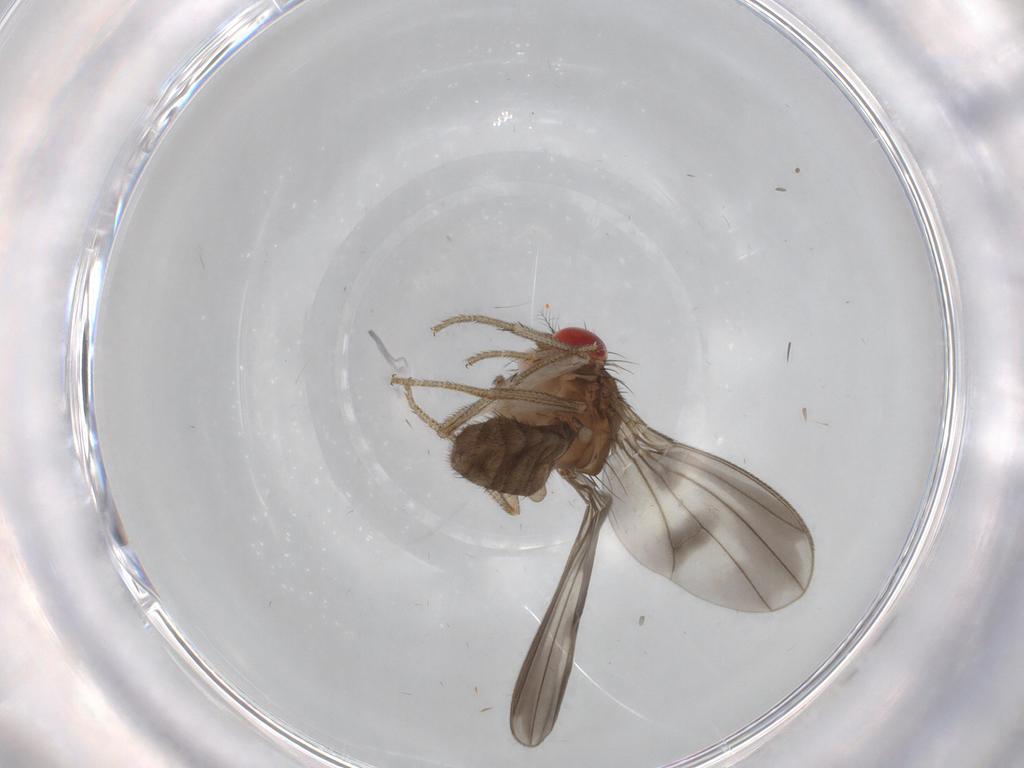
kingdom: Animalia
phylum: Arthropoda
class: Insecta
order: Diptera
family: Drosophilidae
